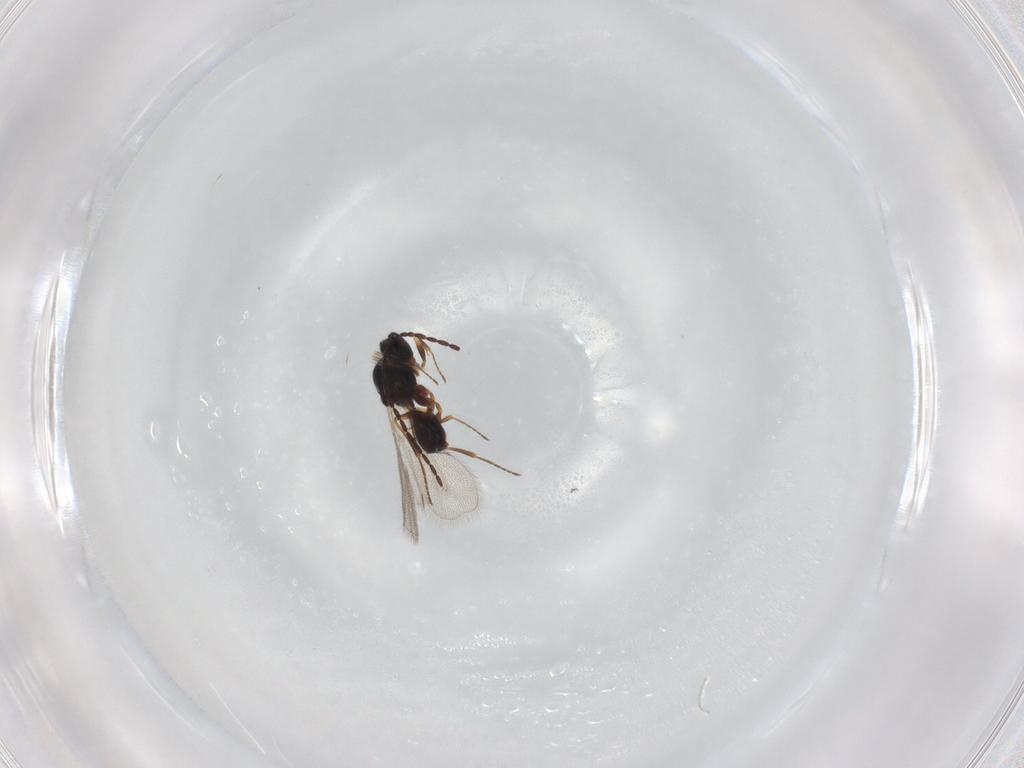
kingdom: Animalia
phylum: Arthropoda
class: Insecta
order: Hymenoptera
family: Figitidae
